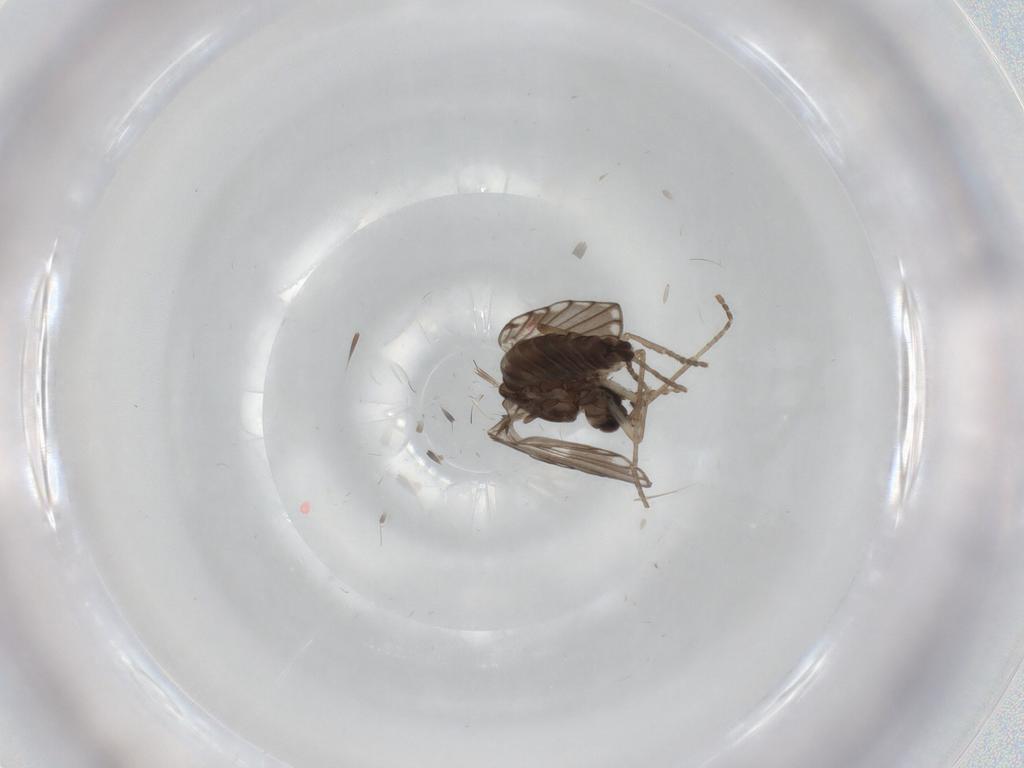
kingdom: Animalia
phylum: Arthropoda
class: Insecta
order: Diptera
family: Psychodidae
